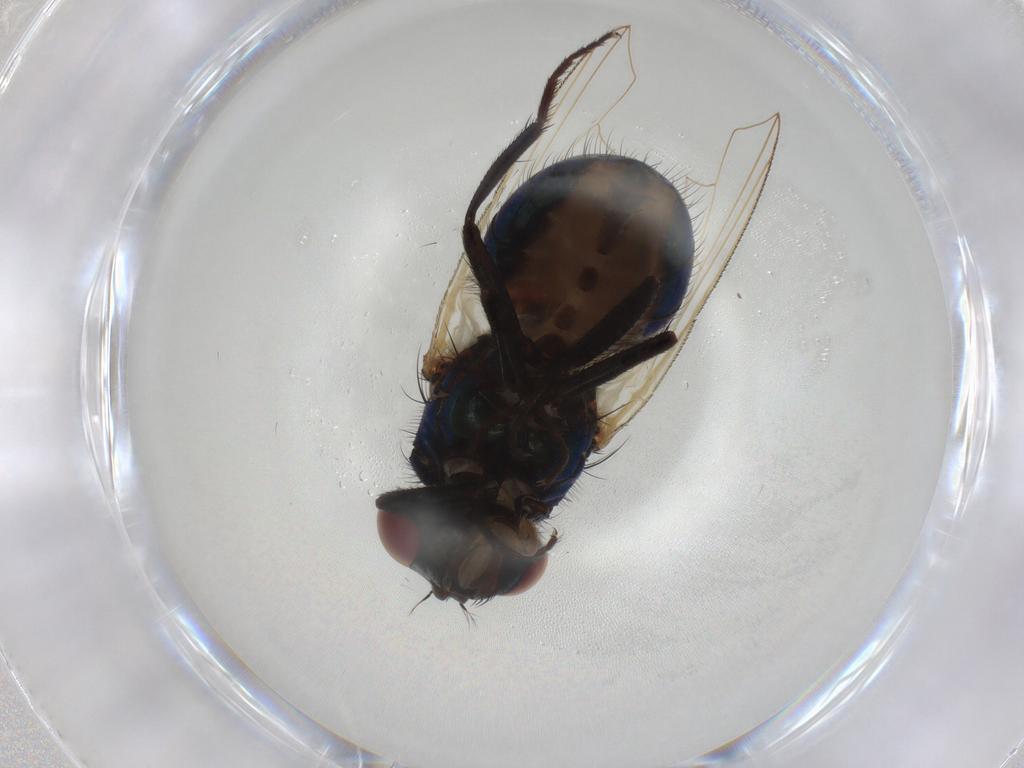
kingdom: Animalia
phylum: Arthropoda
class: Insecta
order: Diptera
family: Muscidae
